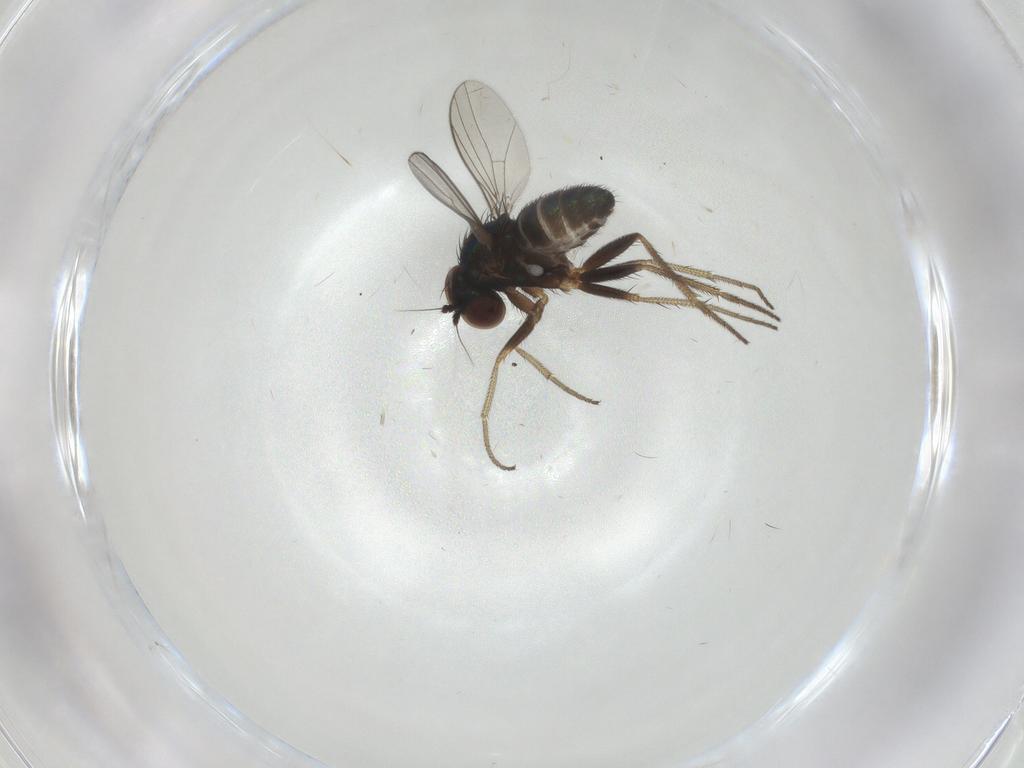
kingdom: Animalia
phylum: Arthropoda
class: Insecta
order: Diptera
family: Dolichopodidae
